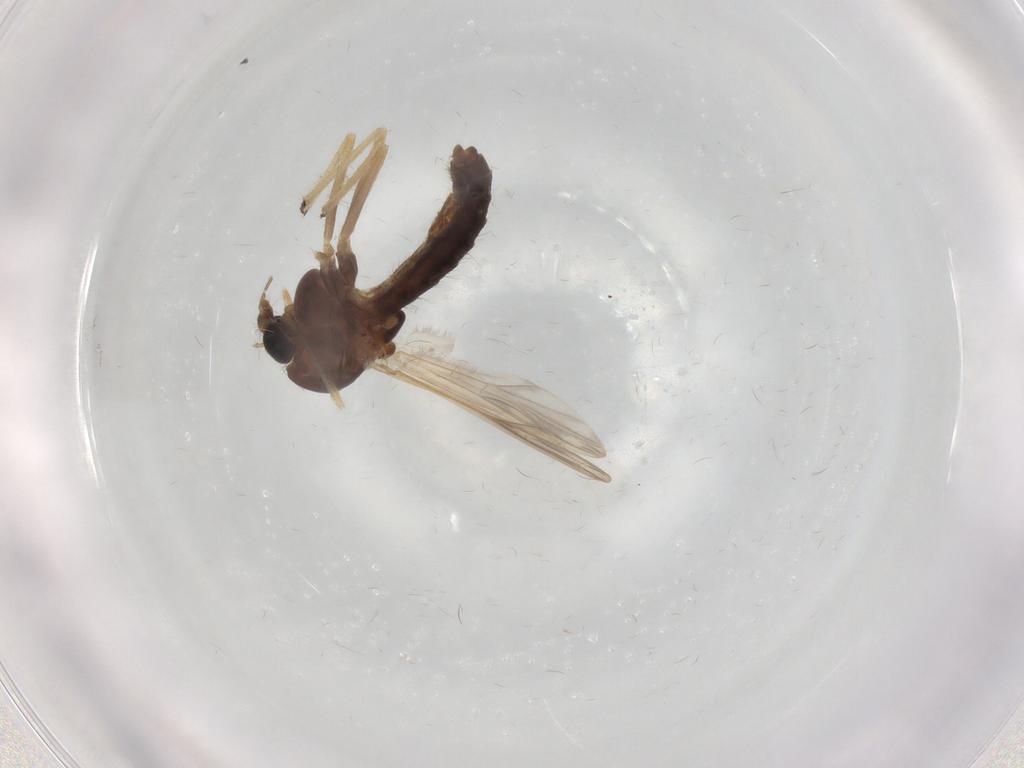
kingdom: Animalia
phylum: Arthropoda
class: Insecta
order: Diptera
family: Chironomidae
